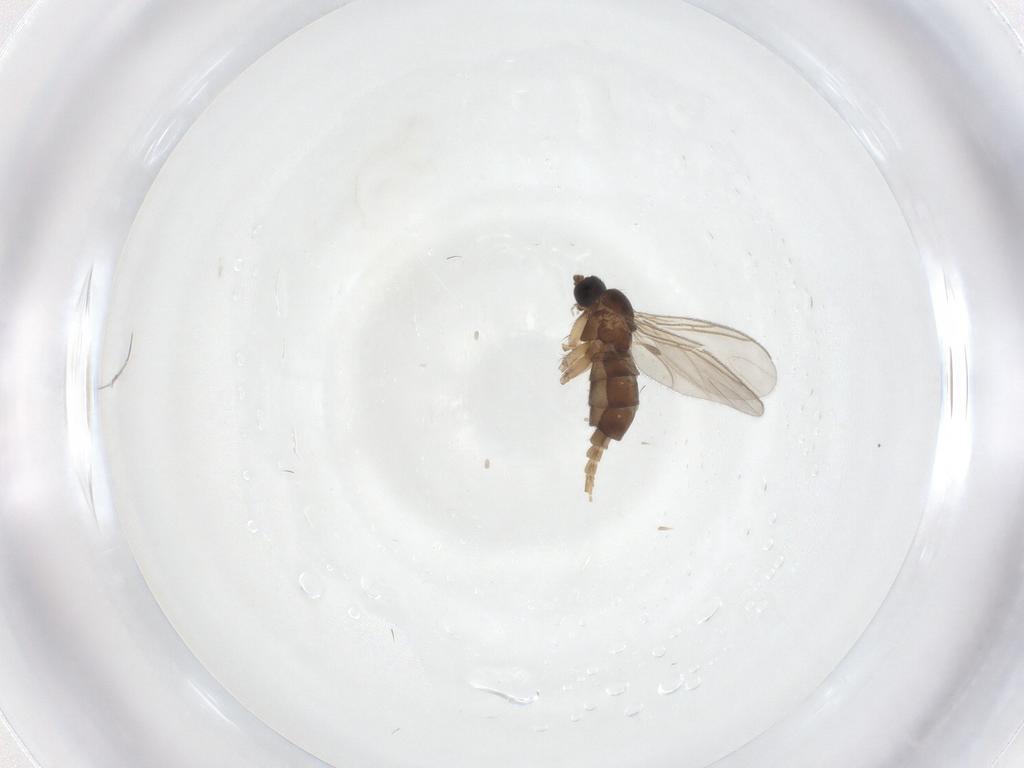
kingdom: Animalia
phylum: Arthropoda
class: Insecta
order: Diptera
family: Sciaridae
